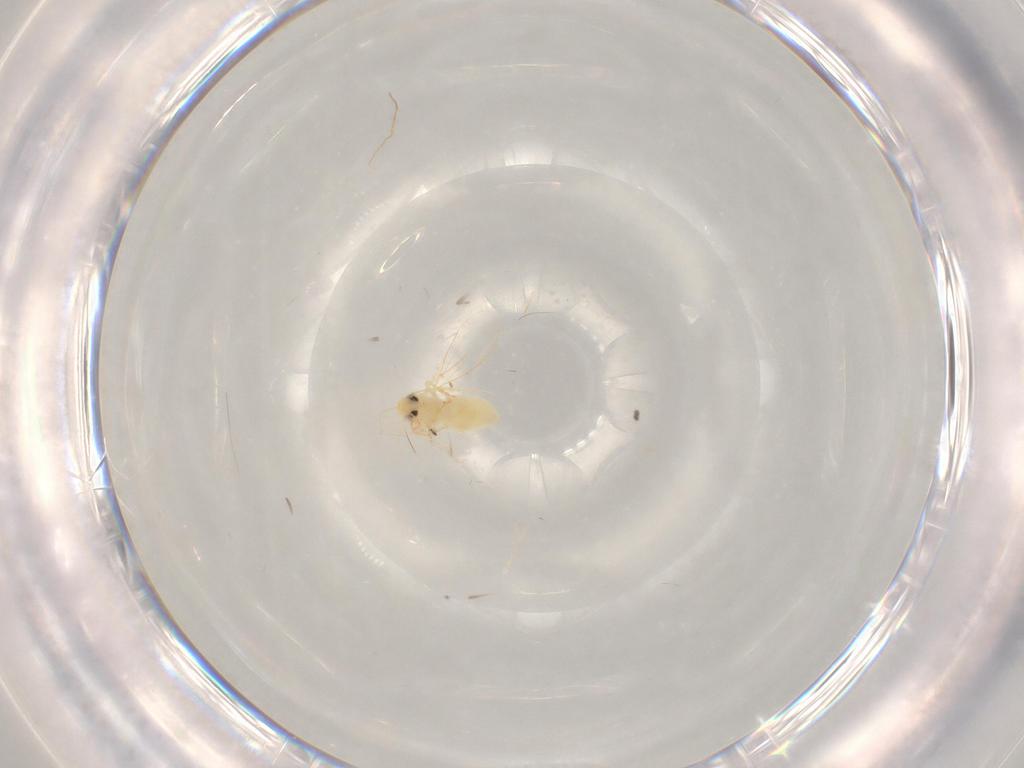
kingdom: Animalia
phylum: Arthropoda
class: Insecta
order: Hemiptera
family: Aleyrodidae
